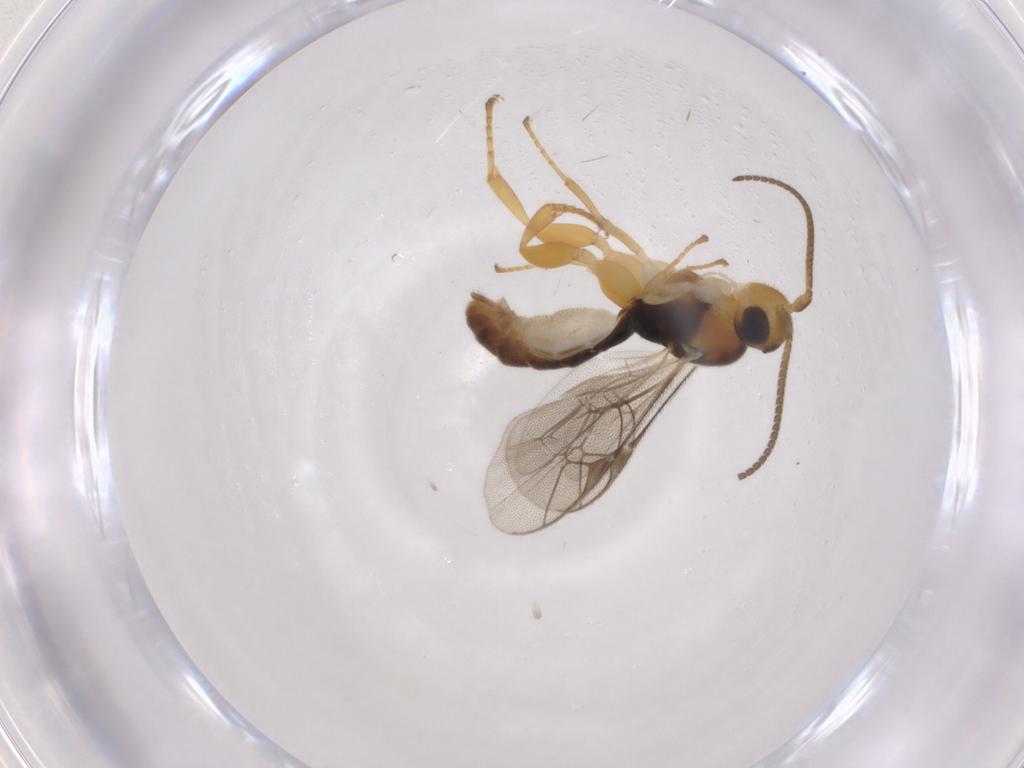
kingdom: Animalia
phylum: Arthropoda
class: Insecta
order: Hymenoptera
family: Ichneumonidae
